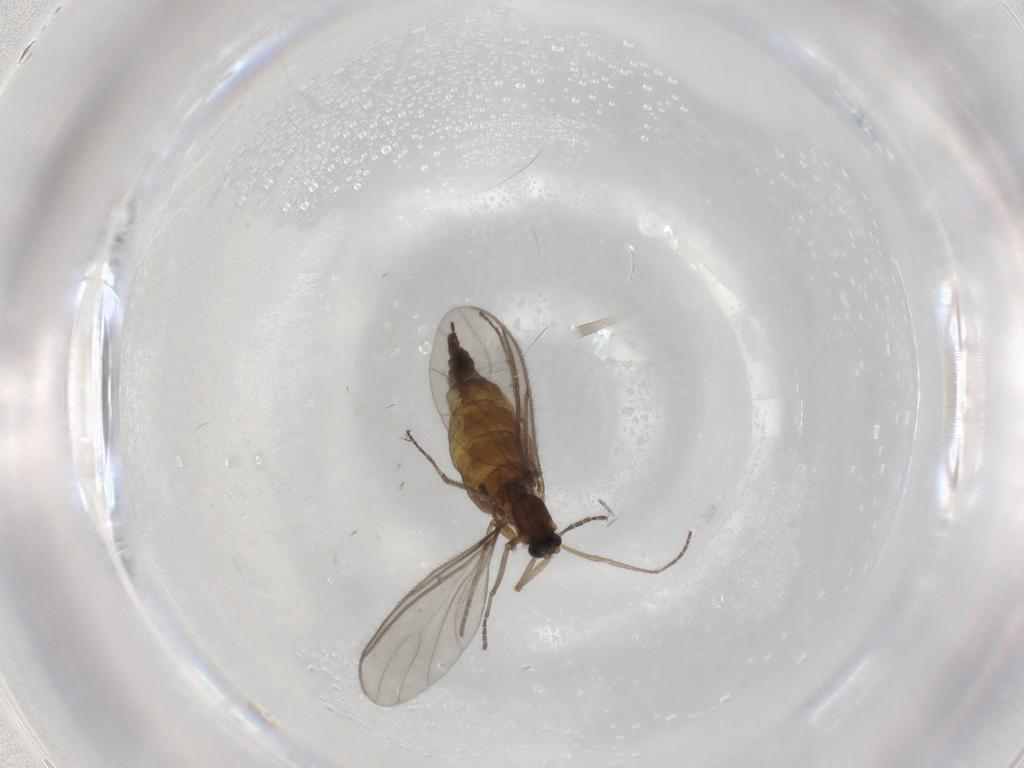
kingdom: Animalia
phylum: Arthropoda
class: Insecta
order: Diptera
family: Sciaridae
